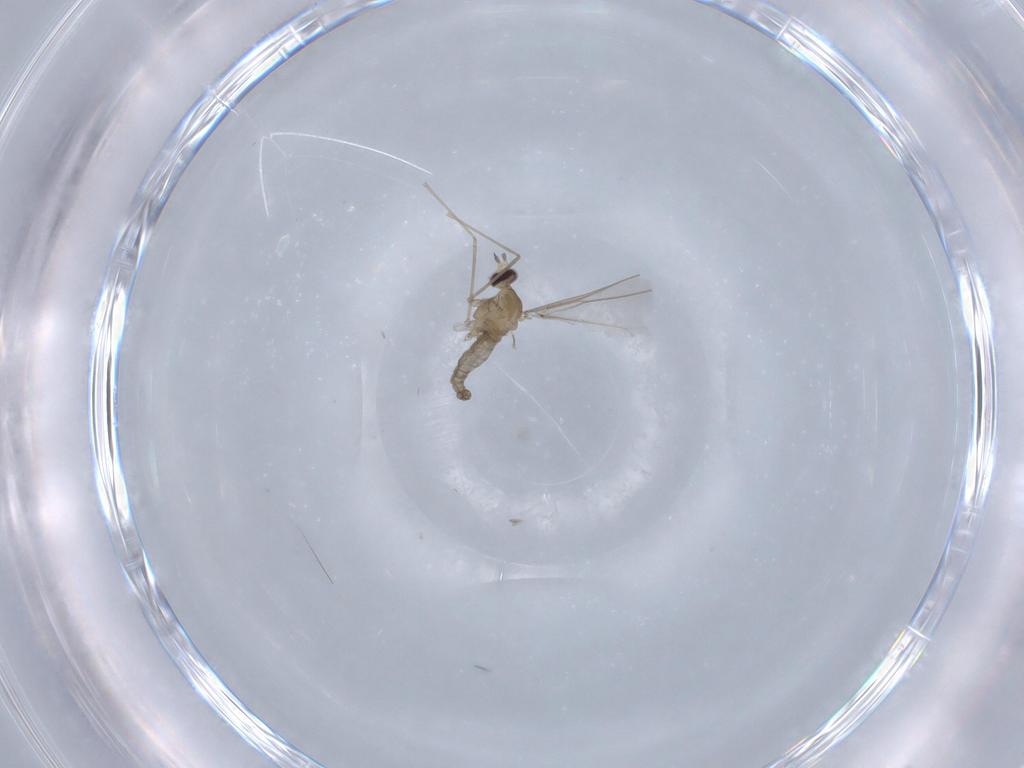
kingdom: Animalia
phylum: Arthropoda
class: Insecta
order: Diptera
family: Cecidomyiidae
